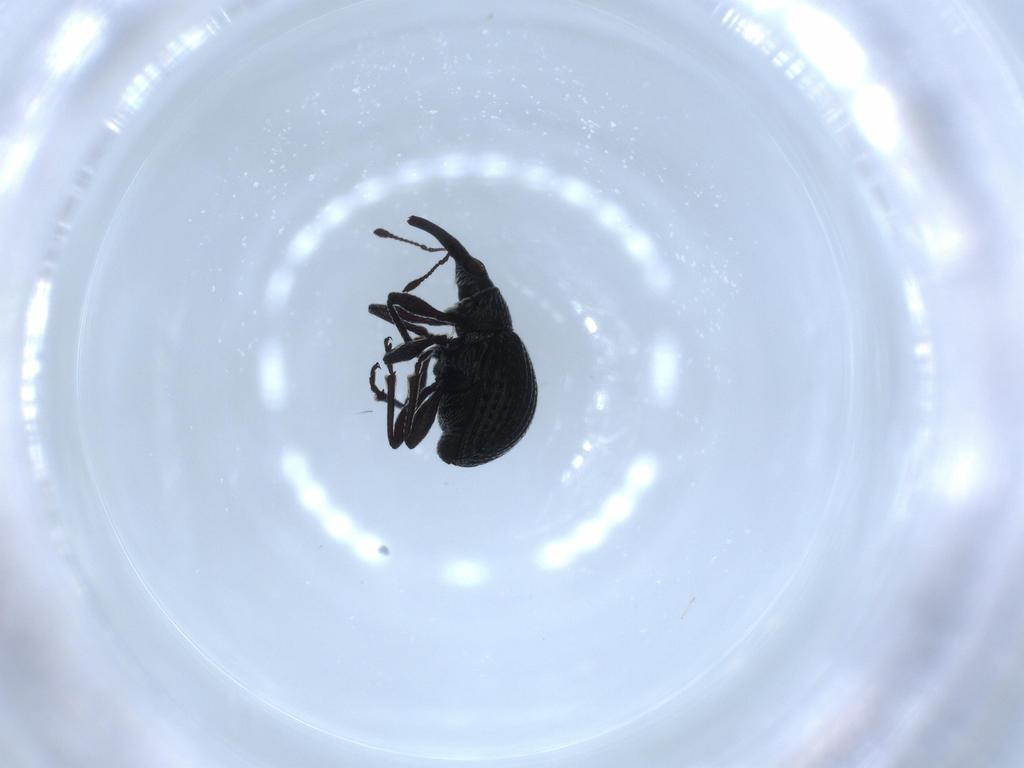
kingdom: Animalia
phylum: Arthropoda
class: Insecta
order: Coleoptera
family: Brentidae
